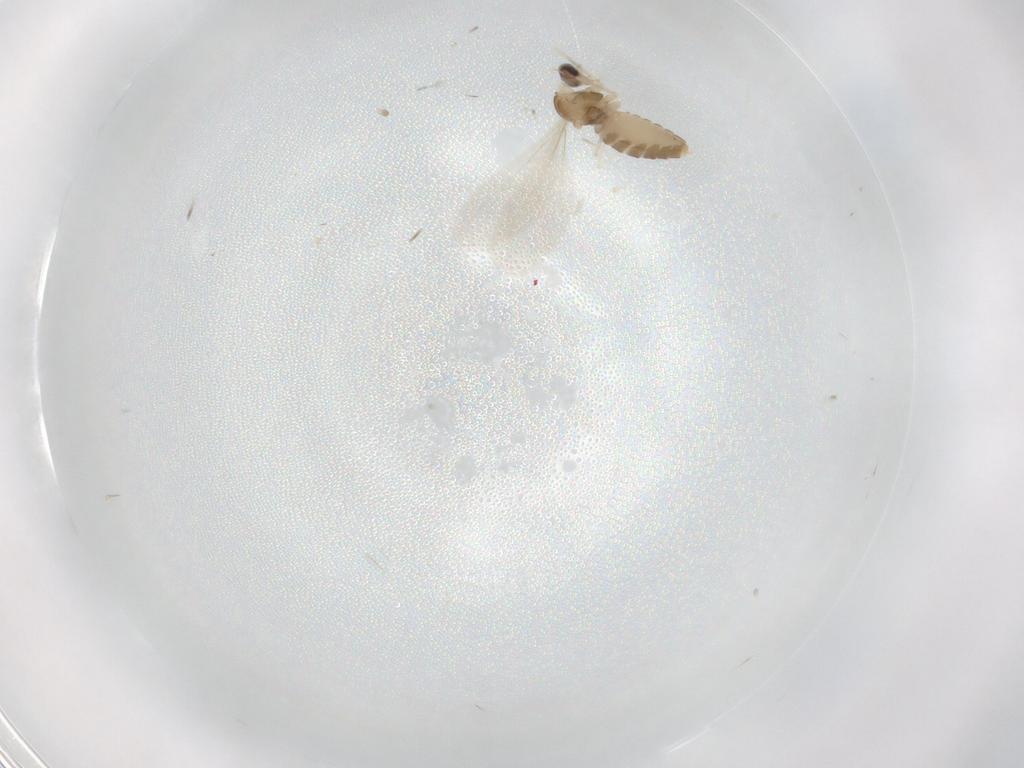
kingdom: Animalia
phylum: Arthropoda
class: Insecta
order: Diptera
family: Cecidomyiidae
